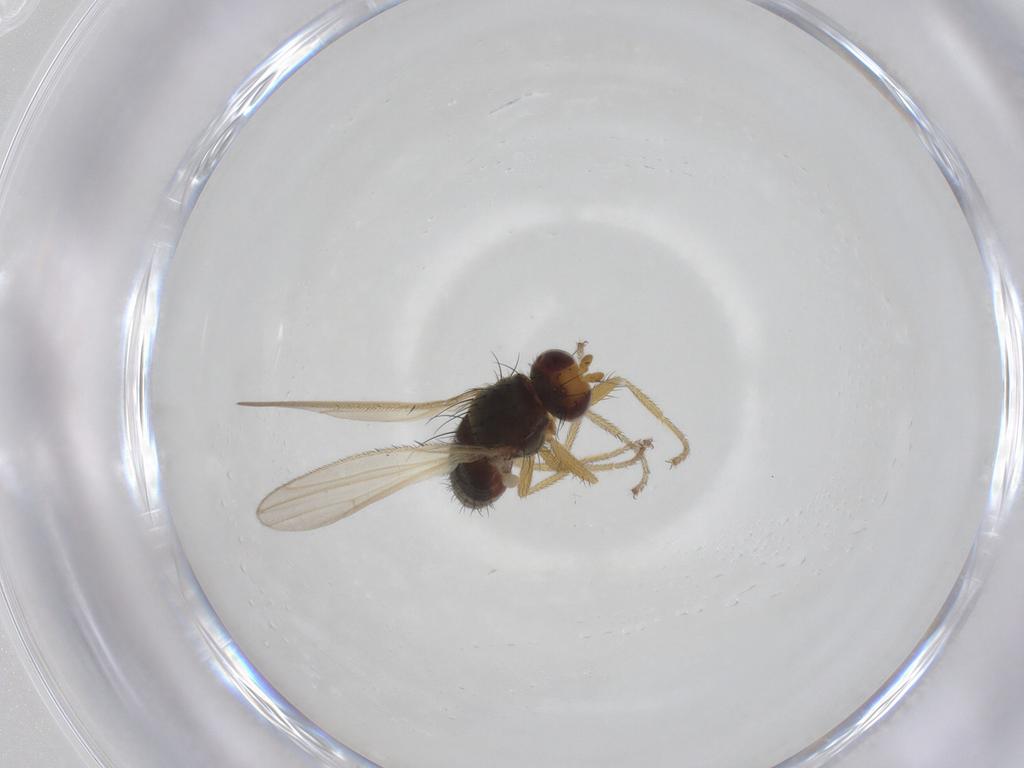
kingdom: Animalia
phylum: Arthropoda
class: Insecta
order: Diptera
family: Heleomyzidae
